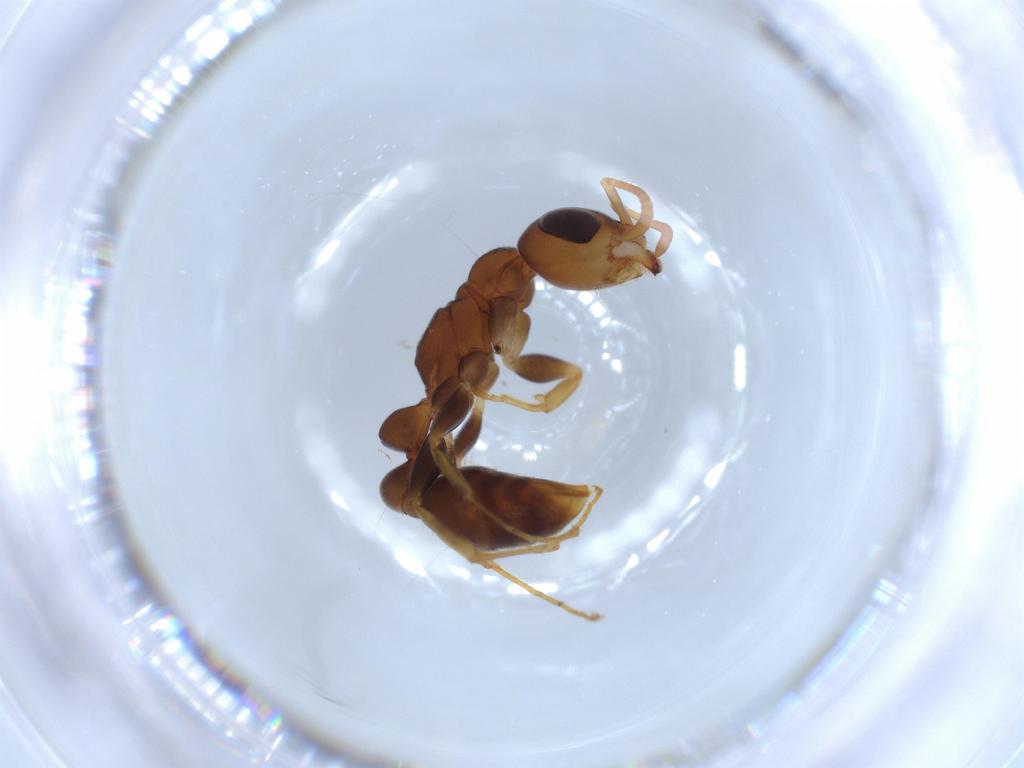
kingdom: Animalia
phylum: Arthropoda
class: Insecta
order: Hymenoptera
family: Formicidae
